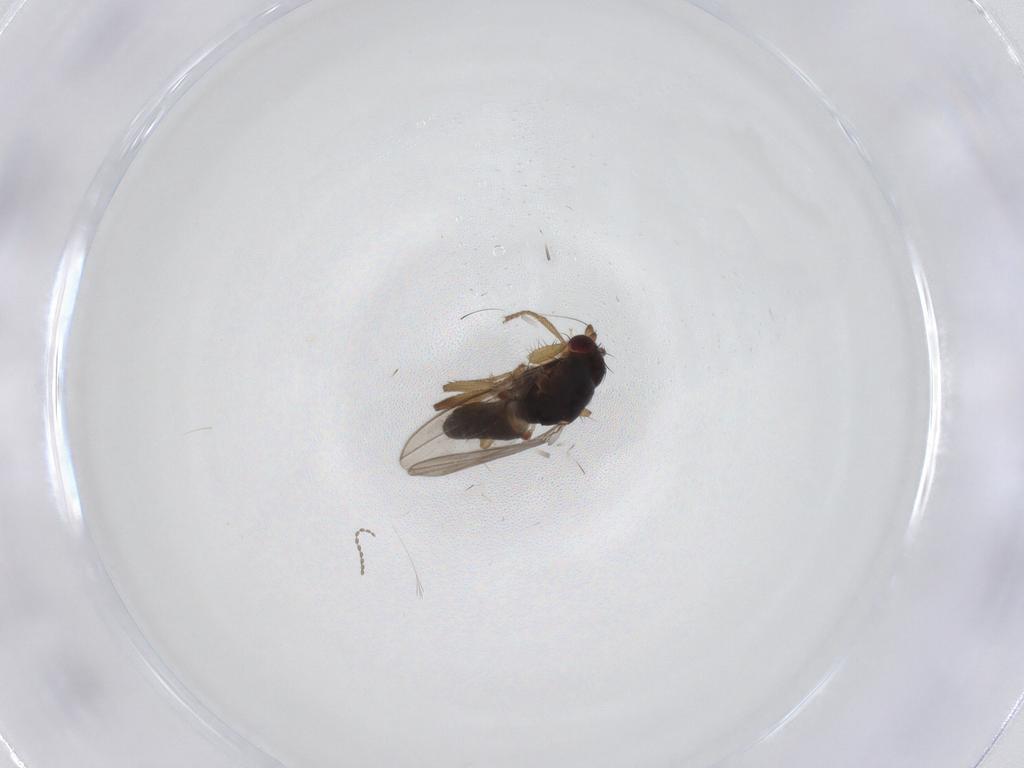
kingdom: Animalia
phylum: Arthropoda
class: Insecta
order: Diptera
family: Sphaeroceridae
